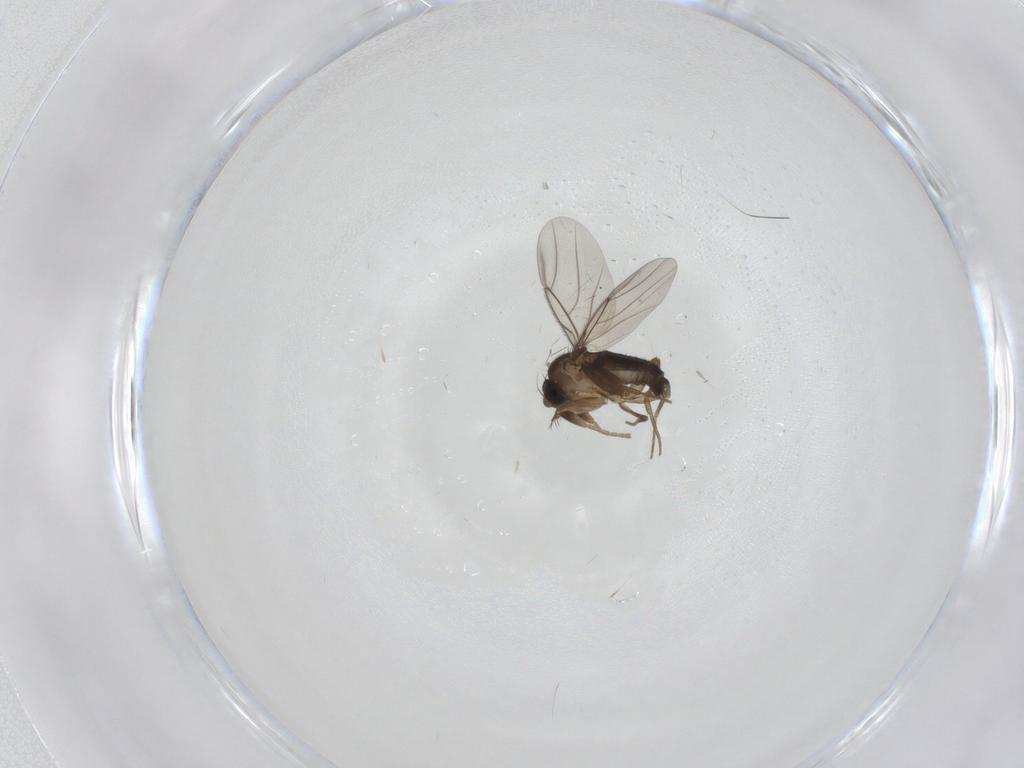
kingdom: Animalia
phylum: Arthropoda
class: Insecta
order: Diptera
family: Phoridae
